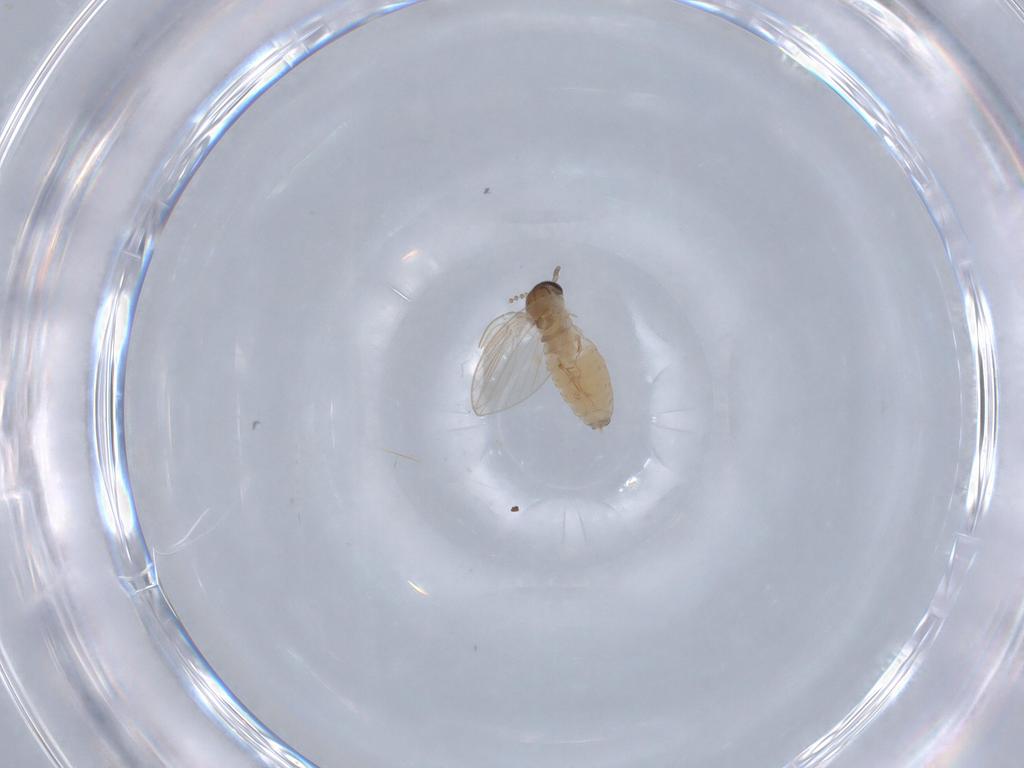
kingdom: Animalia
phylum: Arthropoda
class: Insecta
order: Diptera
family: Psychodidae
